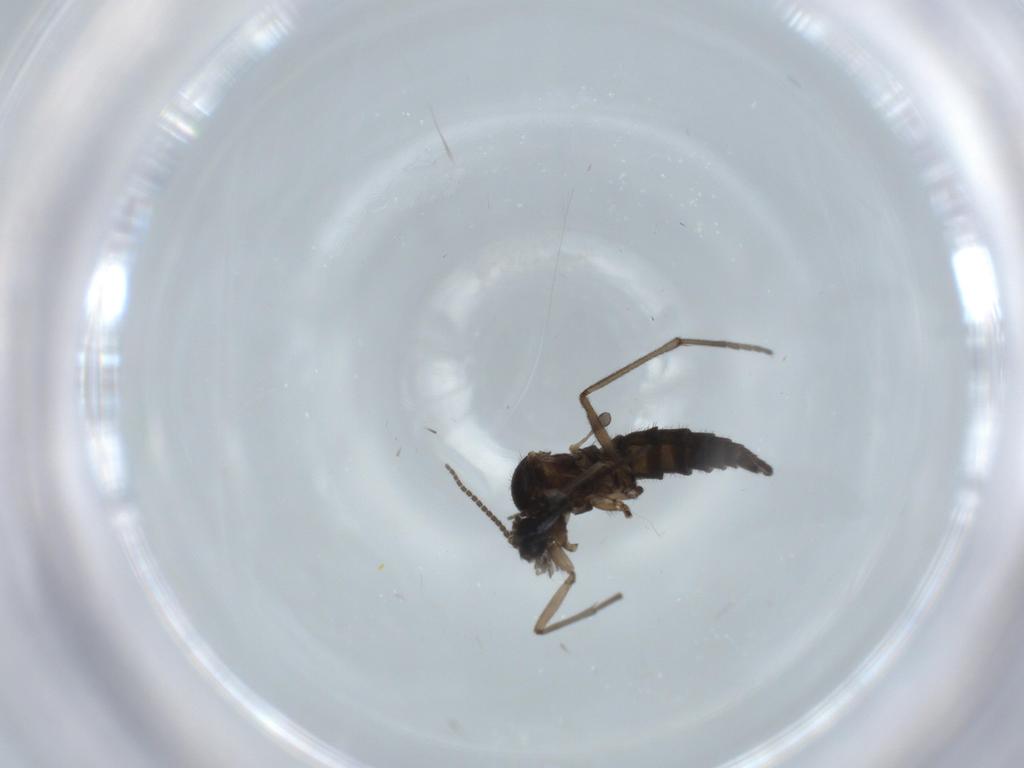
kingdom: Animalia
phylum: Arthropoda
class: Insecta
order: Diptera
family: Sciaridae
